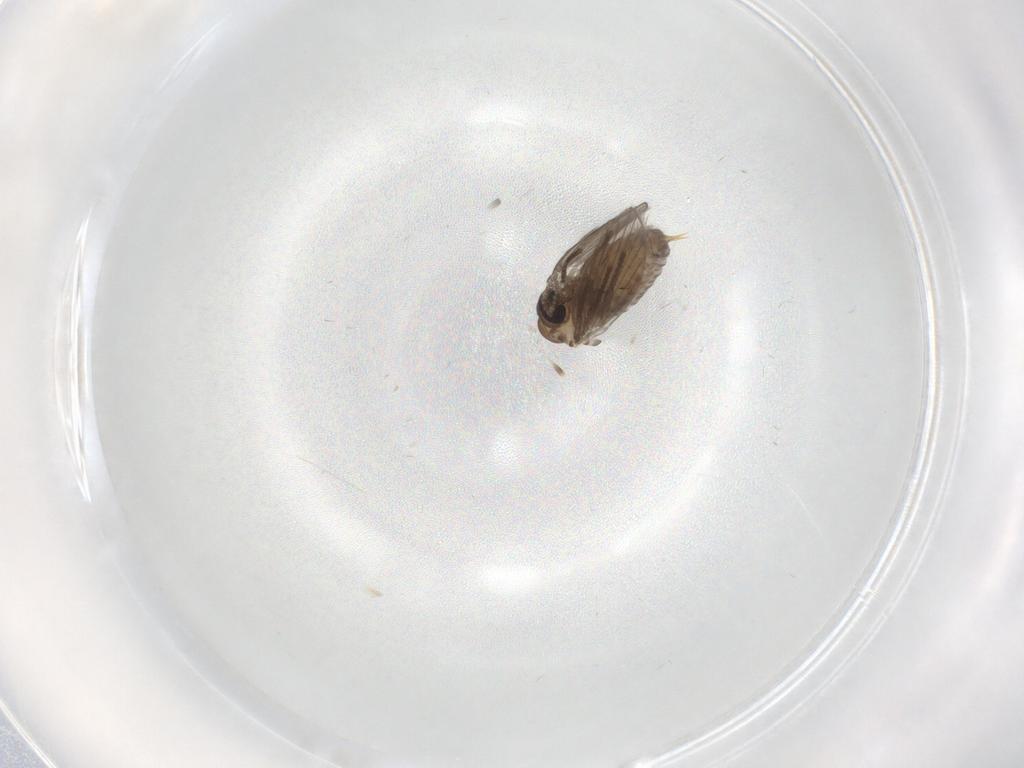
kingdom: Animalia
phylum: Arthropoda
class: Insecta
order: Diptera
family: Psychodidae
